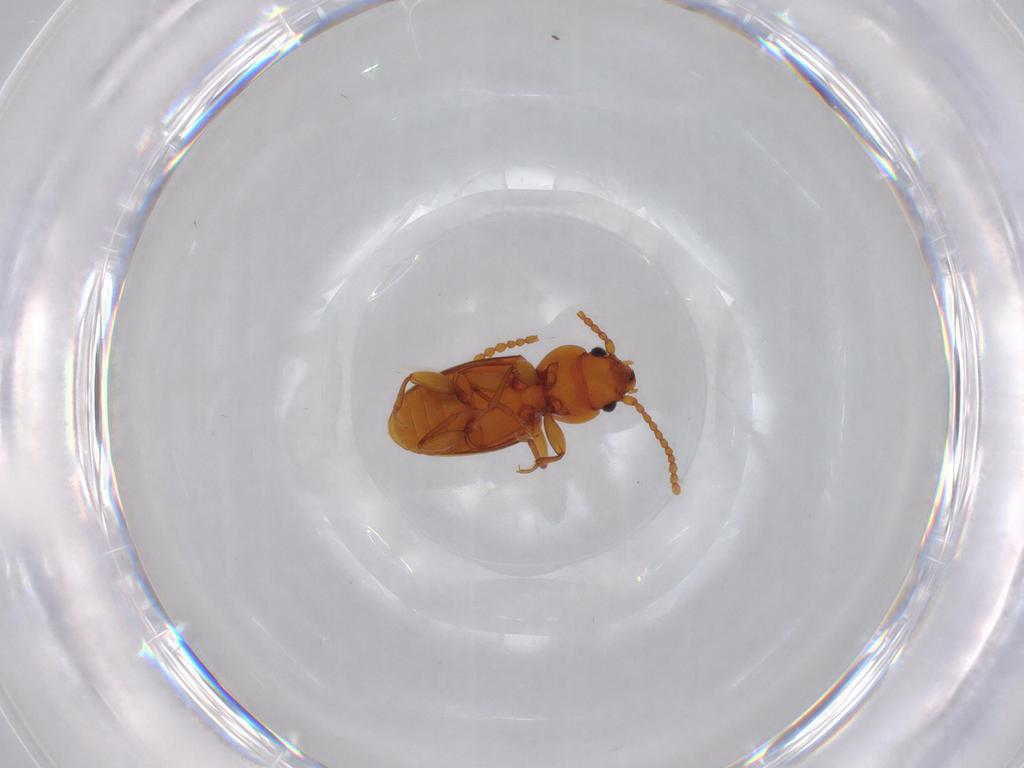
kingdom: Animalia
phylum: Arthropoda
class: Insecta
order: Coleoptera
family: Laemophloeidae
